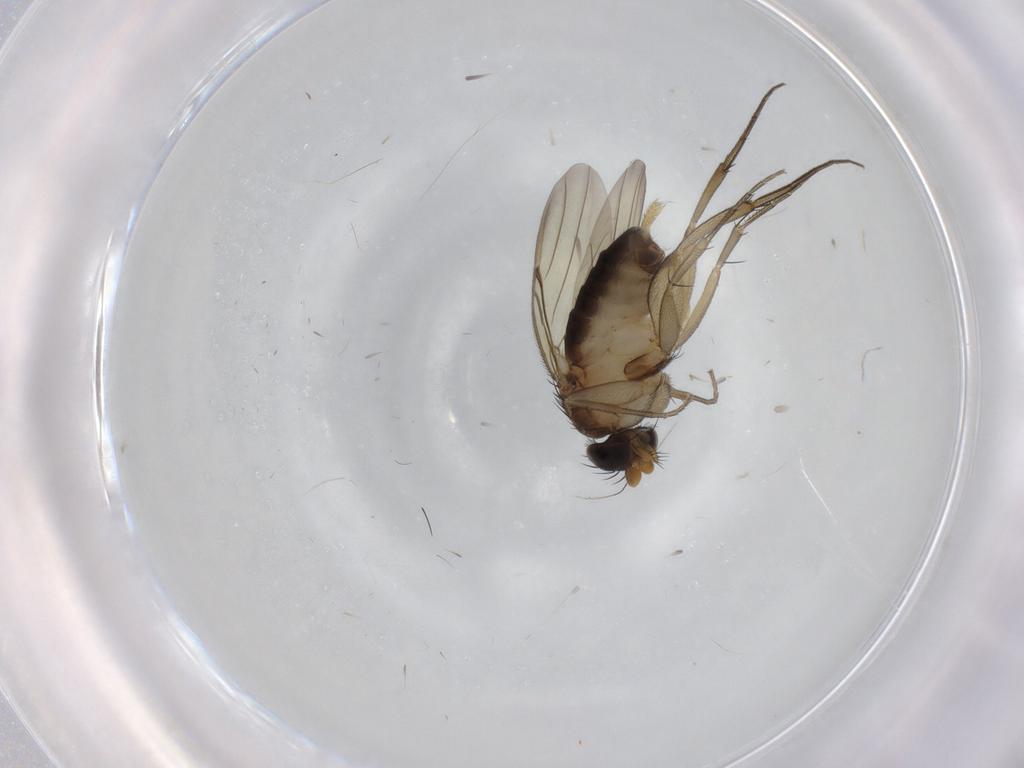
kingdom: Animalia
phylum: Arthropoda
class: Insecta
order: Diptera
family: Phoridae
